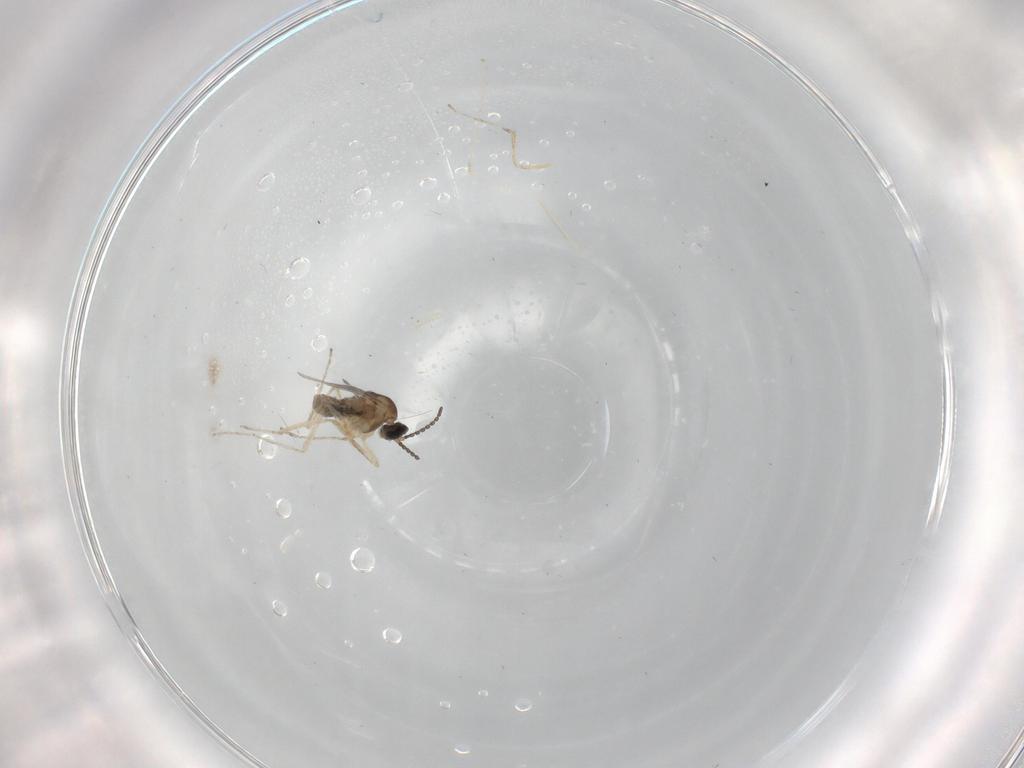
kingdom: Animalia
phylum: Arthropoda
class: Insecta
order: Diptera
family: Cecidomyiidae
